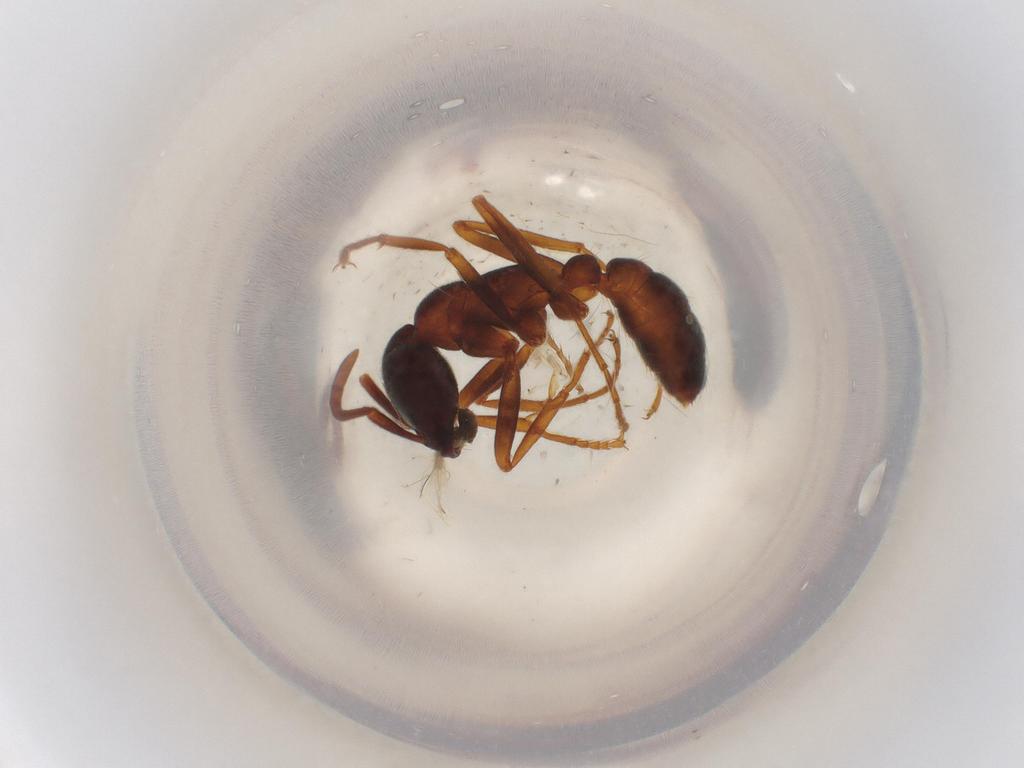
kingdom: Animalia
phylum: Arthropoda
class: Insecta
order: Hymenoptera
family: Formicidae
